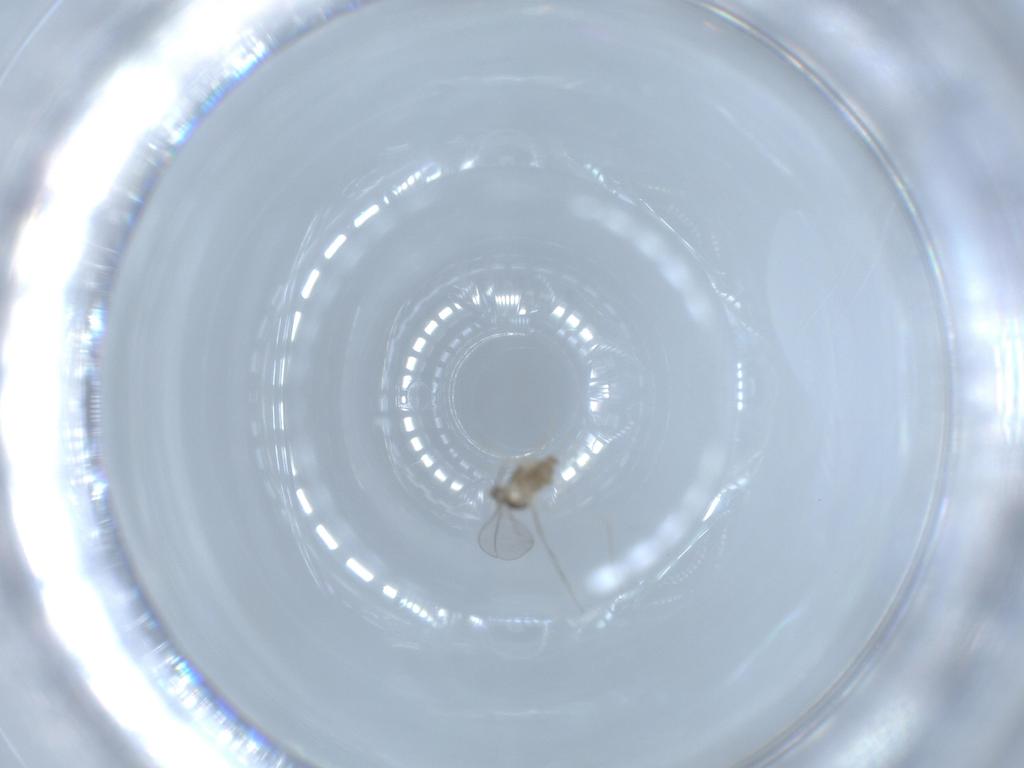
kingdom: Animalia
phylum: Arthropoda
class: Insecta
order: Diptera
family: Cecidomyiidae
